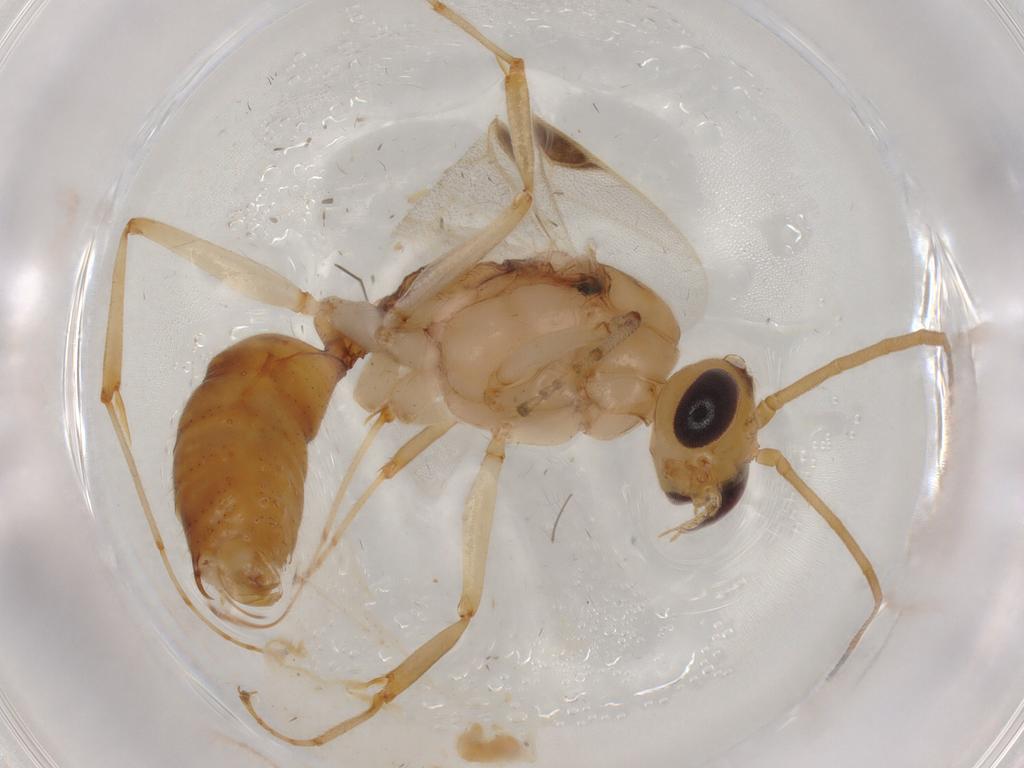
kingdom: Animalia
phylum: Arthropoda
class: Insecta
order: Hymenoptera
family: Formicidae
